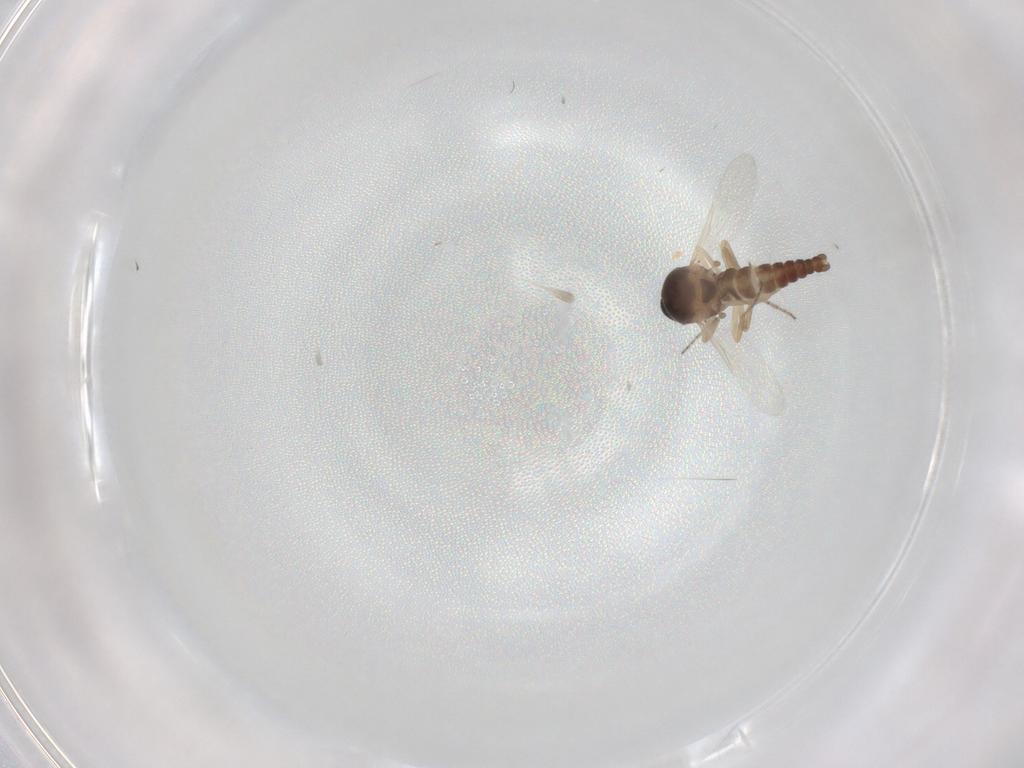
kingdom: Animalia
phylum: Arthropoda
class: Insecta
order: Diptera
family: Ceratopogonidae
